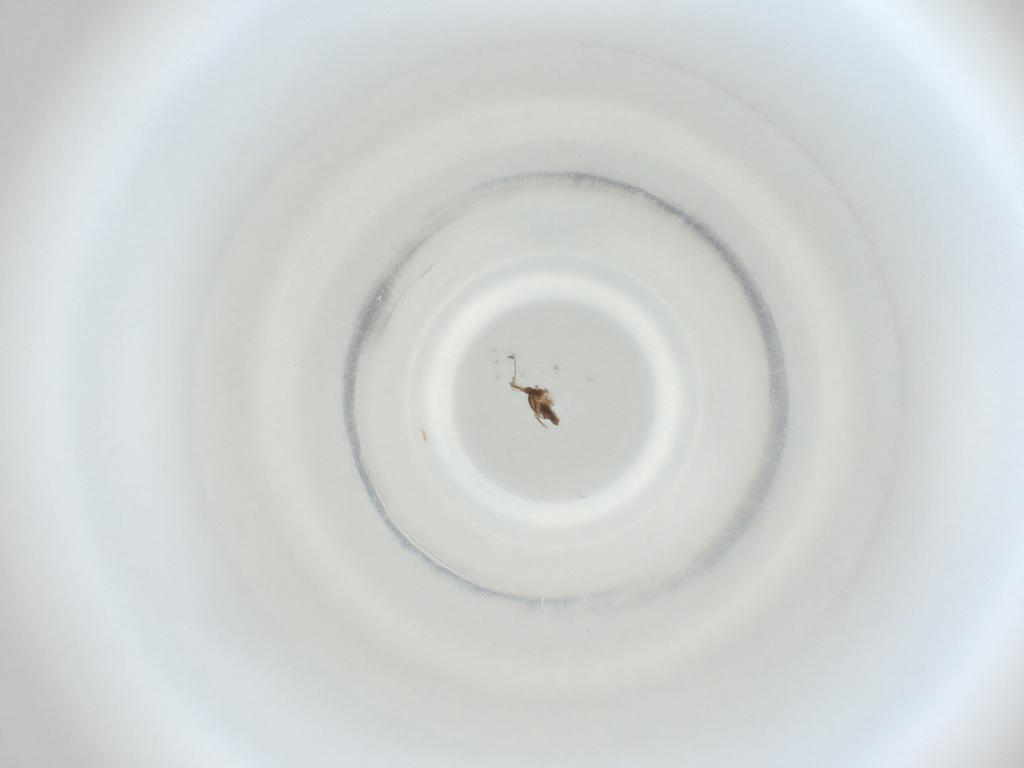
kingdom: Animalia
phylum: Arthropoda
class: Insecta
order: Diptera
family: Cecidomyiidae
